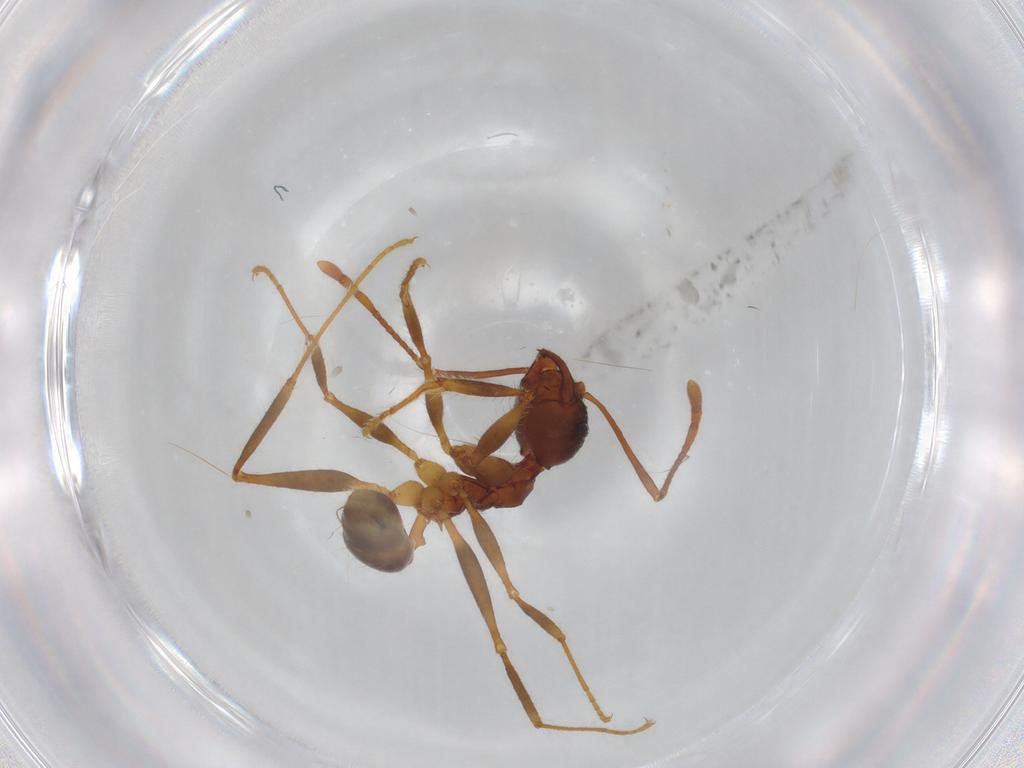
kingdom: Animalia
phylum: Arthropoda
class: Insecta
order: Hymenoptera
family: Formicidae
